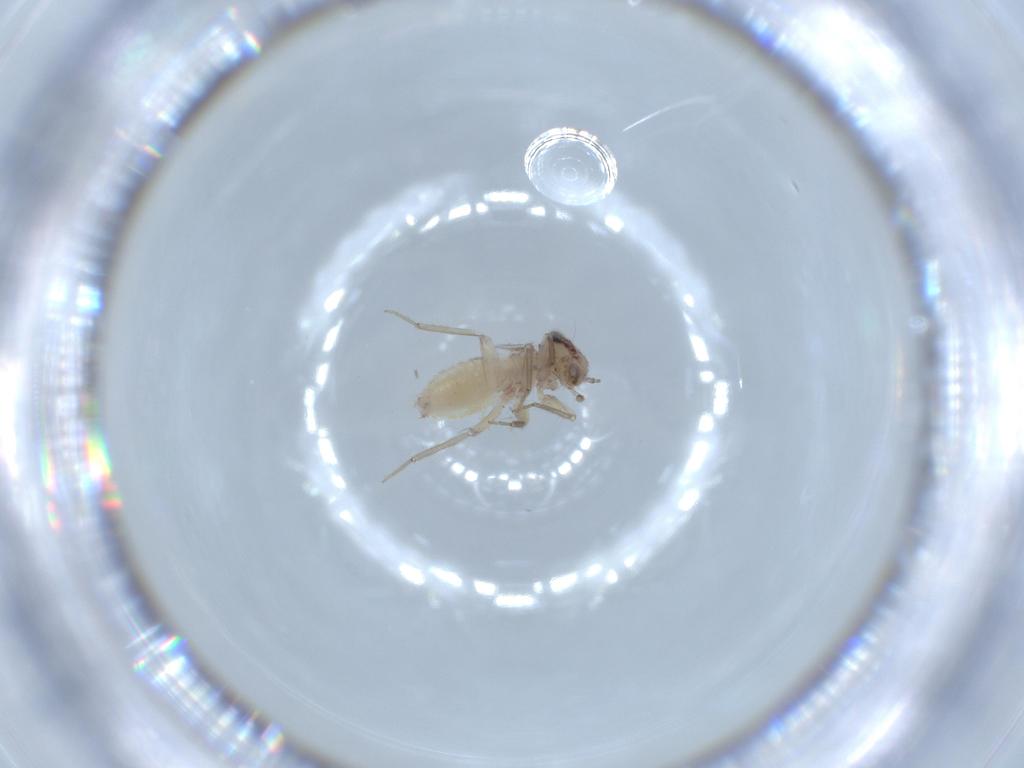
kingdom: Animalia
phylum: Arthropoda
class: Insecta
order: Psocodea
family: Lepidopsocidae
